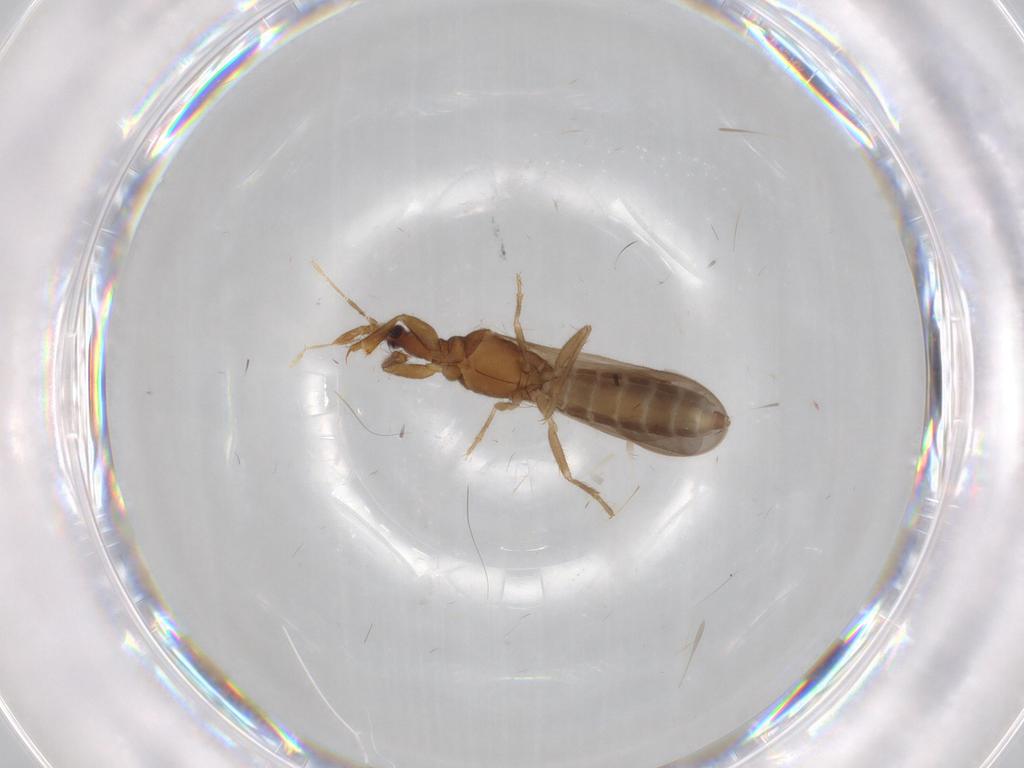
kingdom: Animalia
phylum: Arthropoda
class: Insecta
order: Hemiptera
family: Enicocephalidae
